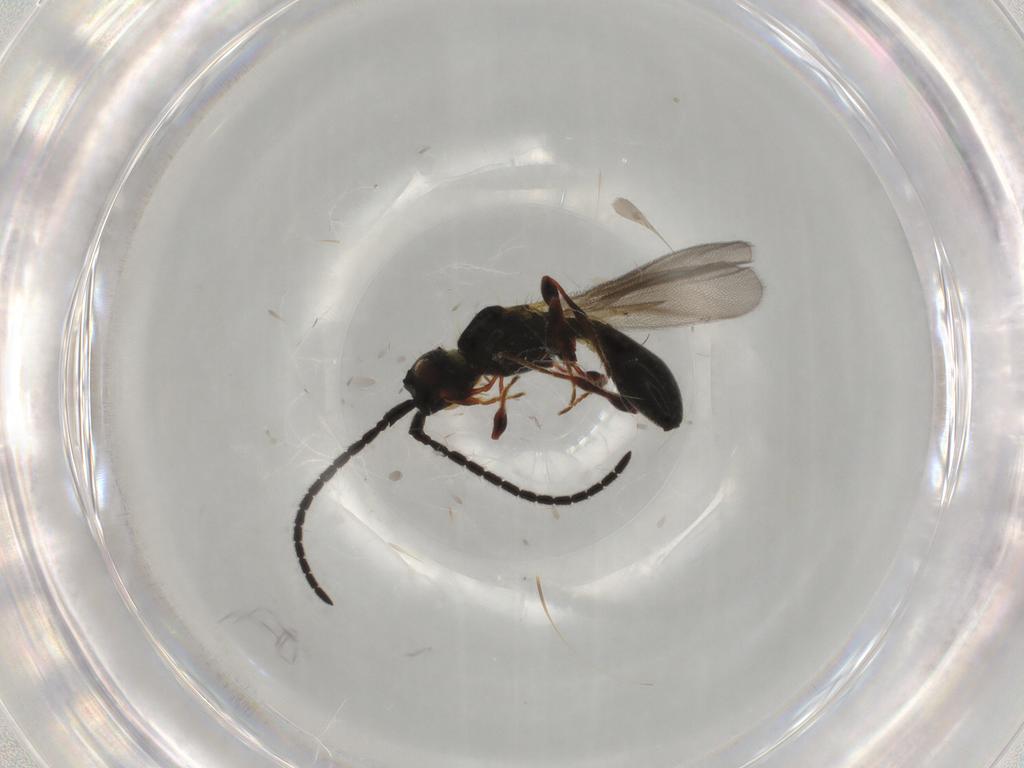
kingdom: Animalia
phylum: Arthropoda
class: Insecta
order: Hymenoptera
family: Diapriidae
